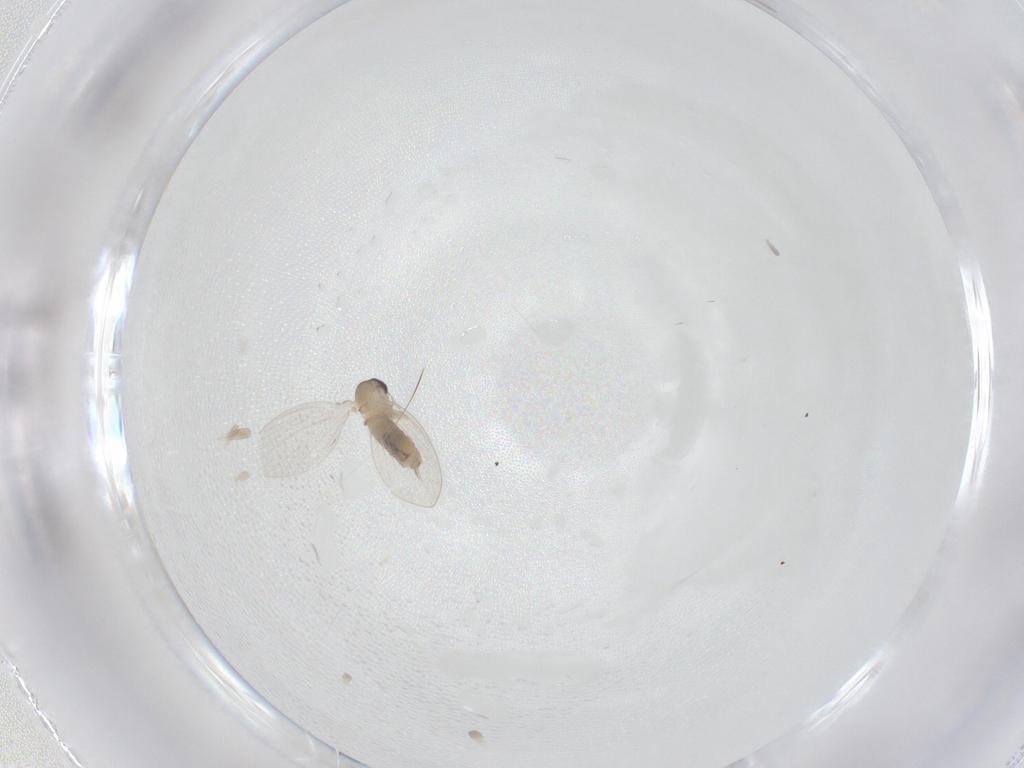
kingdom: Animalia
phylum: Arthropoda
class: Insecta
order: Diptera
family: Psychodidae
